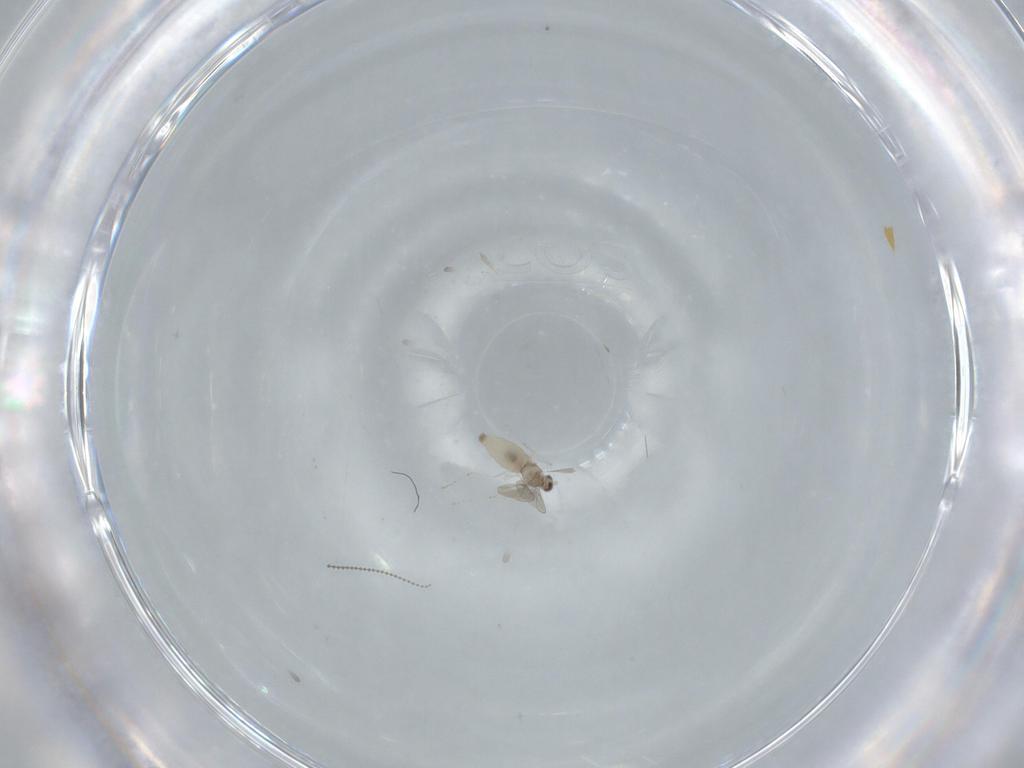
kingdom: Animalia
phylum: Arthropoda
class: Insecta
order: Diptera
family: Cecidomyiidae
